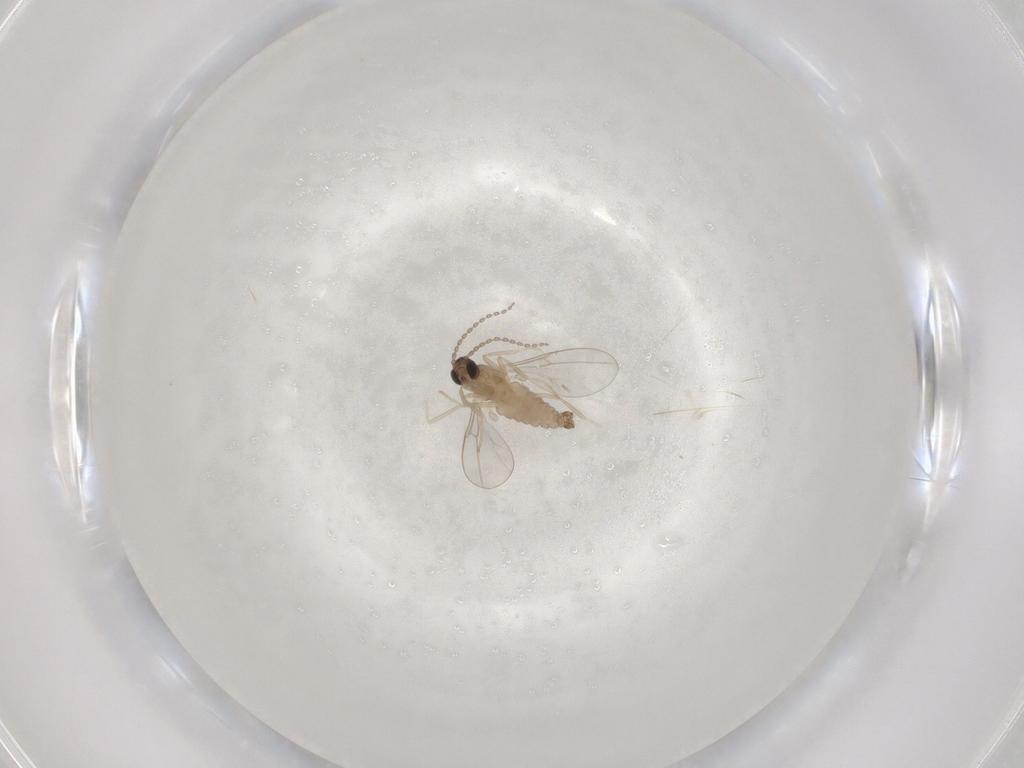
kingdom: Animalia
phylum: Arthropoda
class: Insecta
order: Diptera
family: Cecidomyiidae
